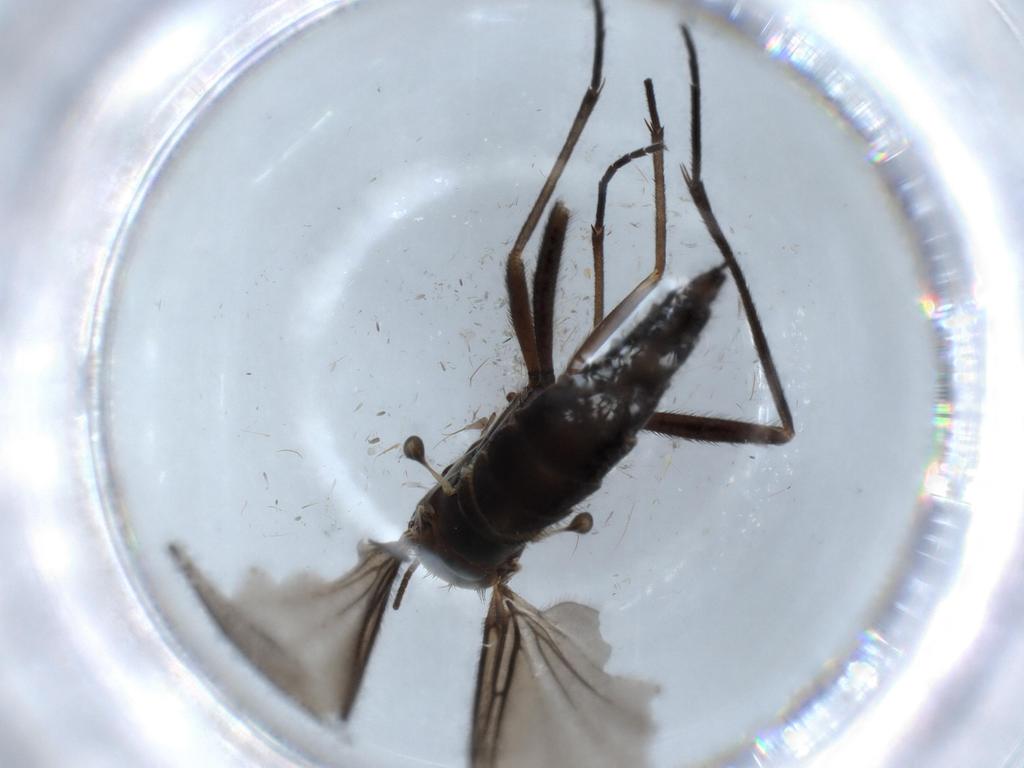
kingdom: Animalia
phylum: Arthropoda
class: Insecta
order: Diptera
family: Sciaridae
